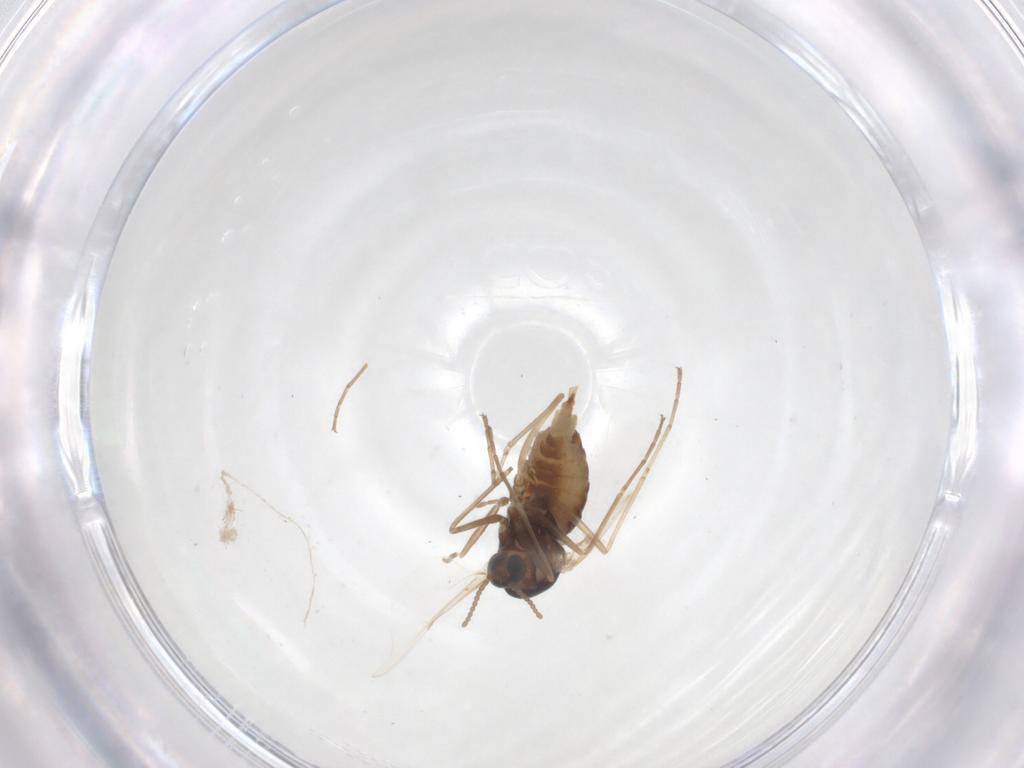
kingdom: Animalia
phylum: Arthropoda
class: Insecta
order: Diptera
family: Cecidomyiidae
